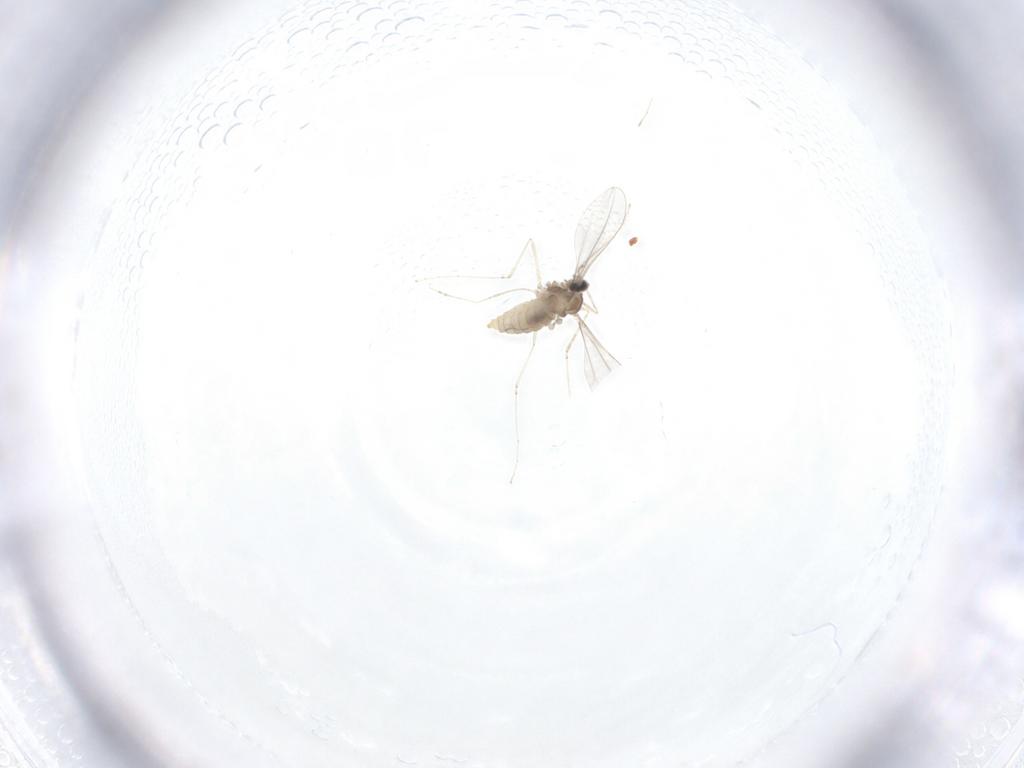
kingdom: Animalia
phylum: Arthropoda
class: Insecta
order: Diptera
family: Cecidomyiidae
